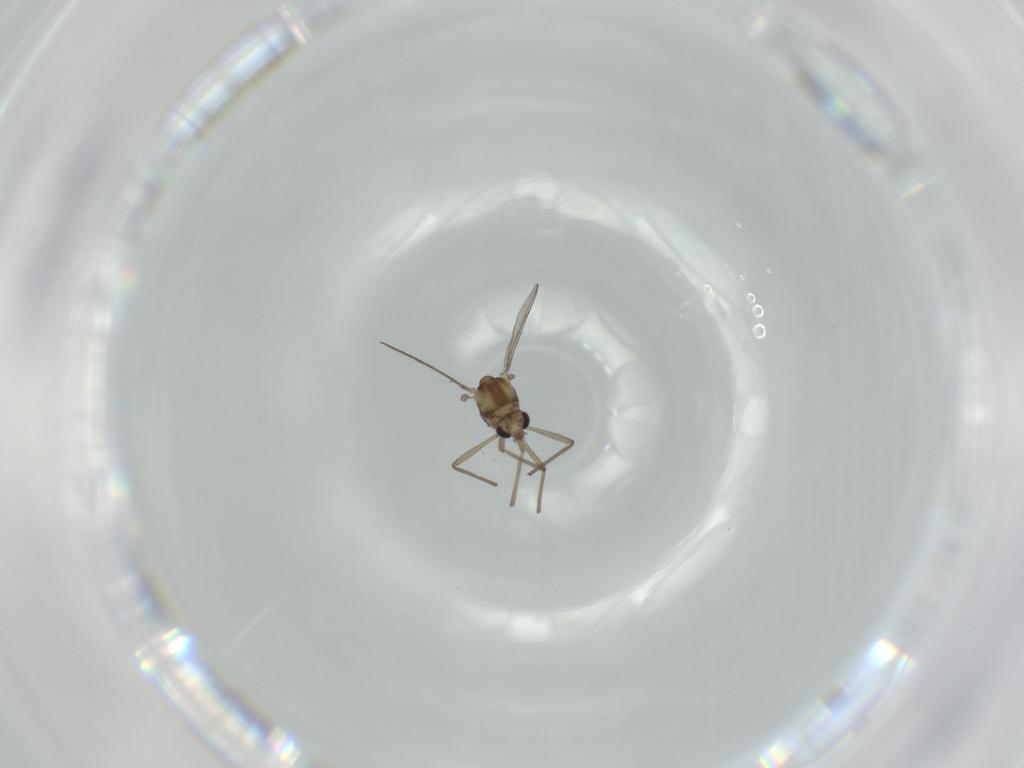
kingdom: Animalia
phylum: Arthropoda
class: Insecta
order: Diptera
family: Chironomidae
